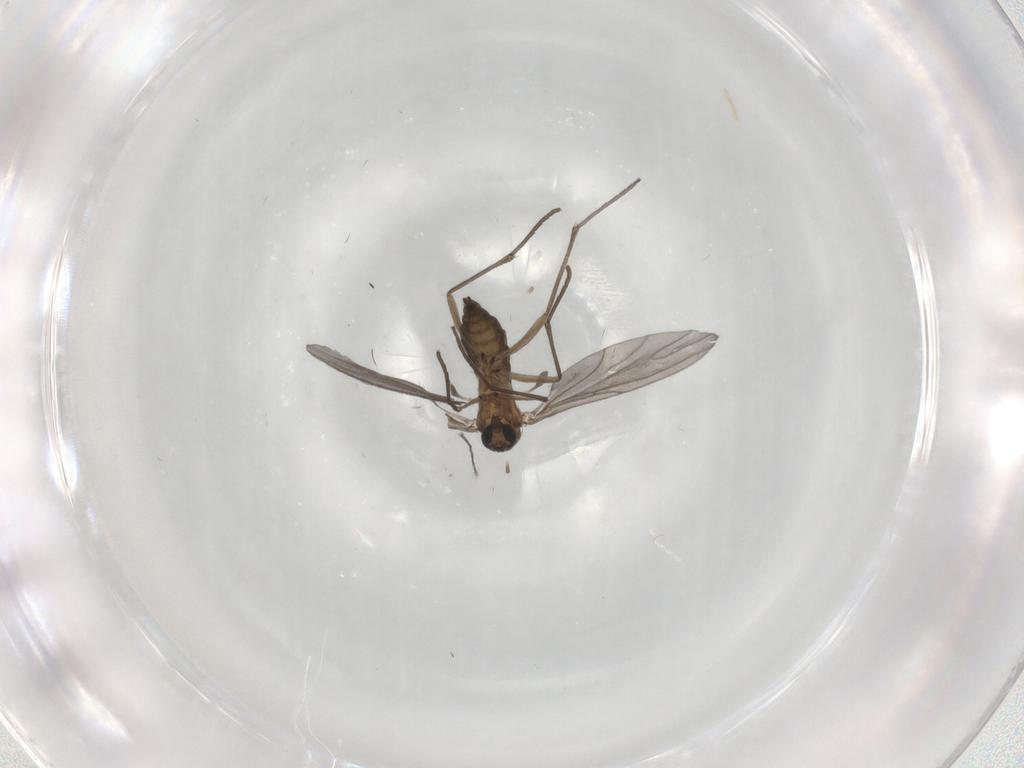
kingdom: Animalia
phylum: Arthropoda
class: Insecta
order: Diptera
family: Sciaridae
